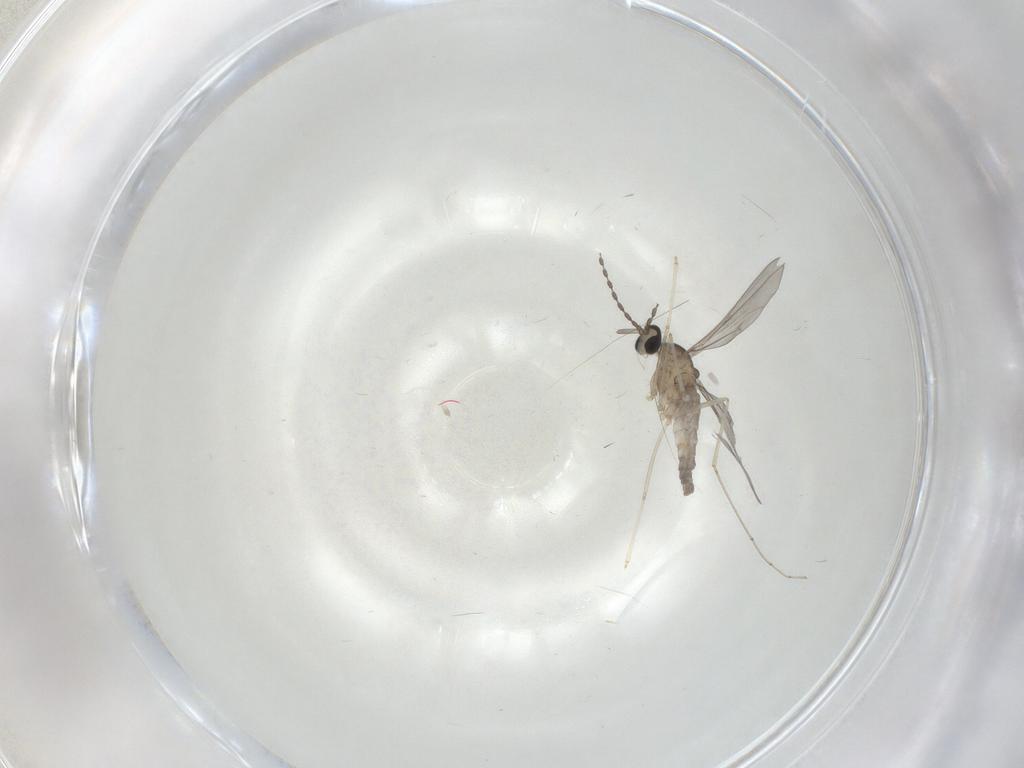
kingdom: Animalia
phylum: Arthropoda
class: Insecta
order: Diptera
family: Cecidomyiidae
